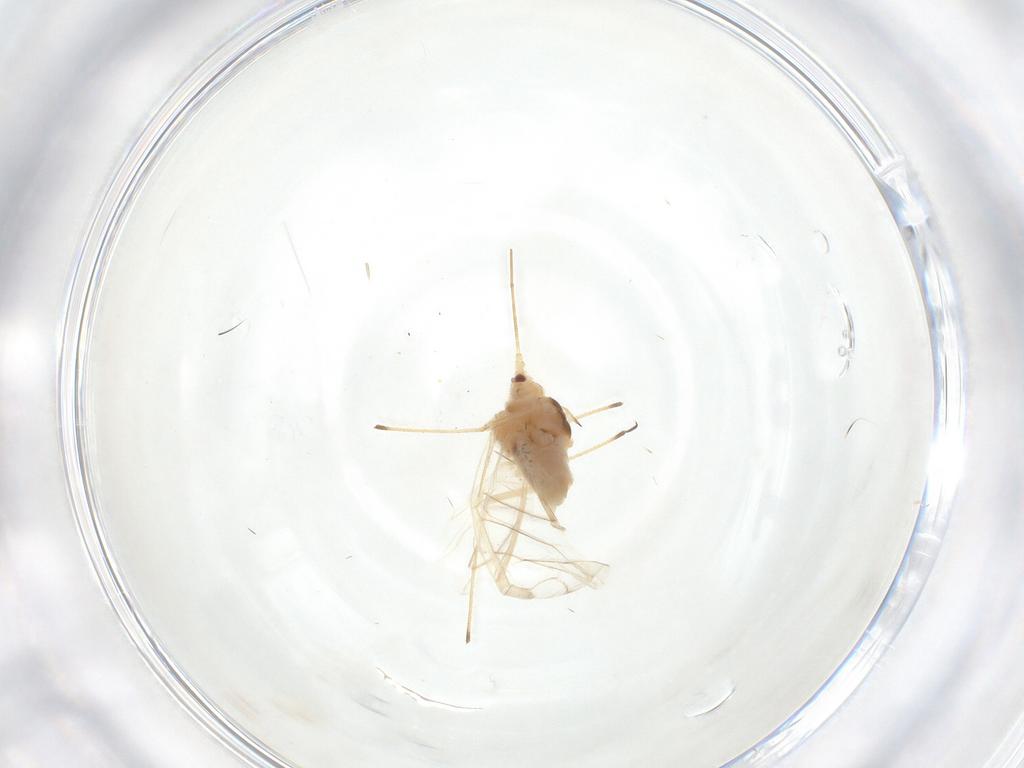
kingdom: Animalia
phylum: Arthropoda
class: Insecta
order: Hemiptera
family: Aphididae
